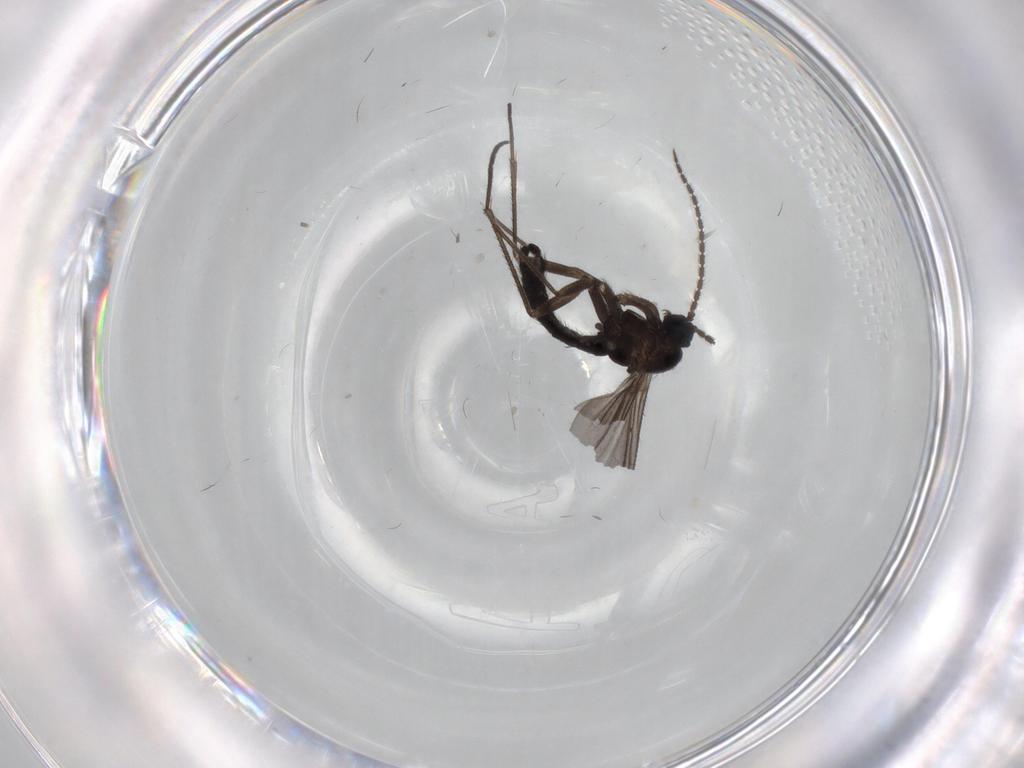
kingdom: Animalia
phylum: Arthropoda
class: Insecta
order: Diptera
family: Sciaridae
